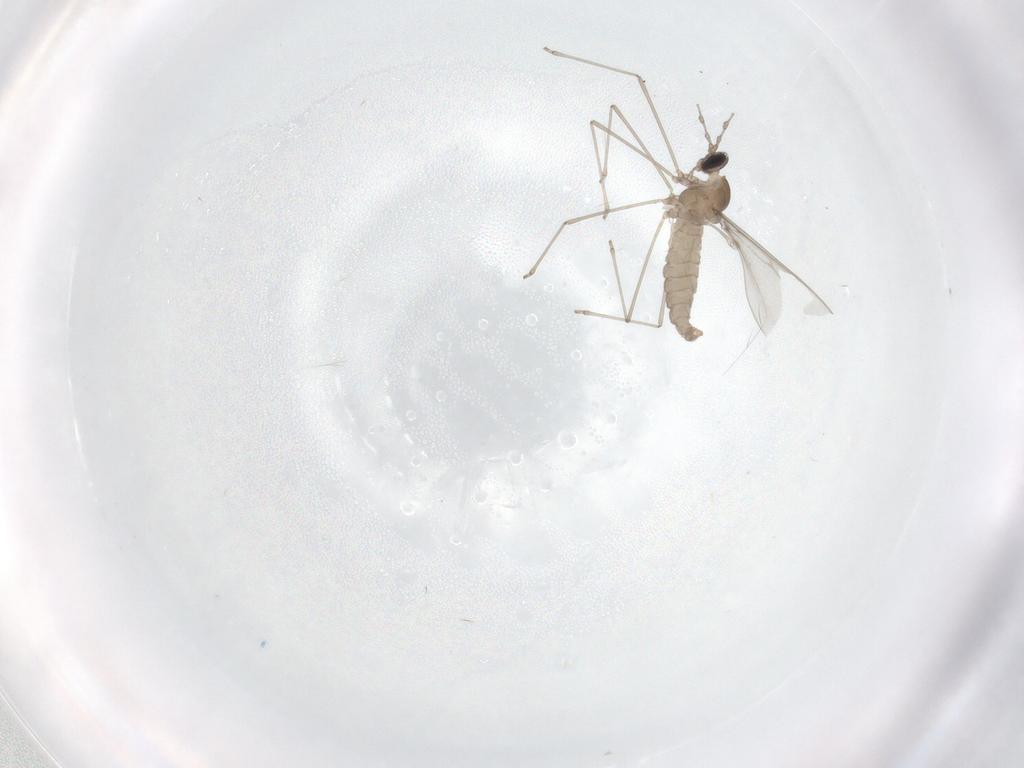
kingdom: Animalia
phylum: Arthropoda
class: Insecta
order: Diptera
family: Cecidomyiidae
